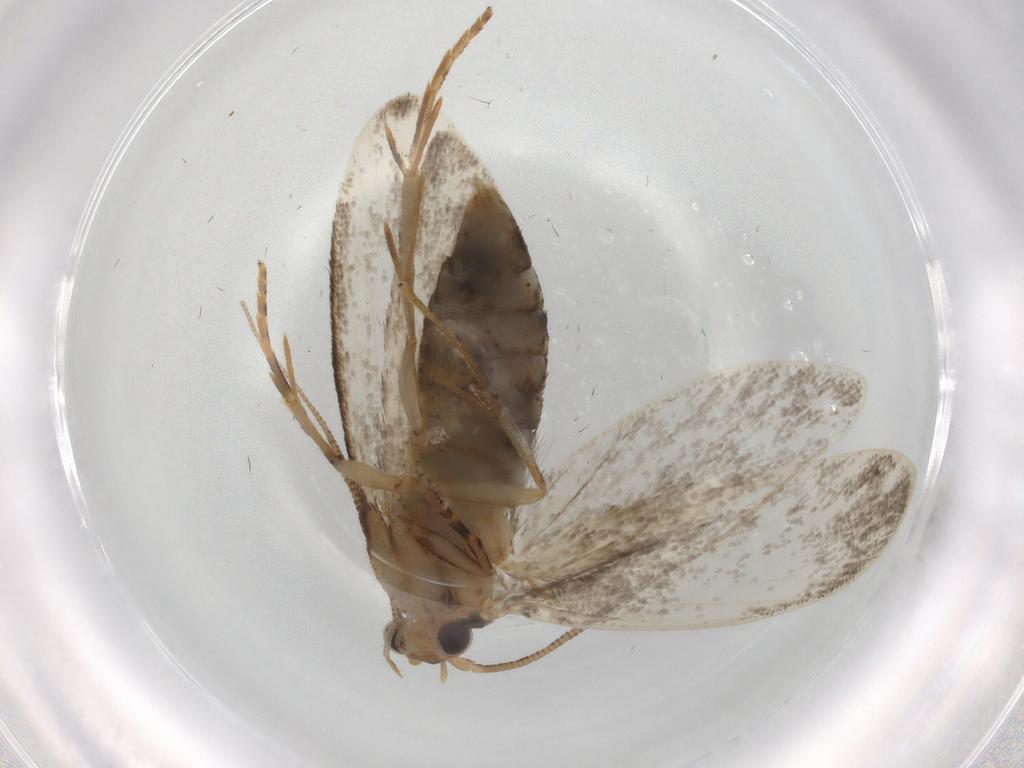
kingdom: Animalia
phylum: Arthropoda
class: Insecta
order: Lepidoptera
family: Tineidae
